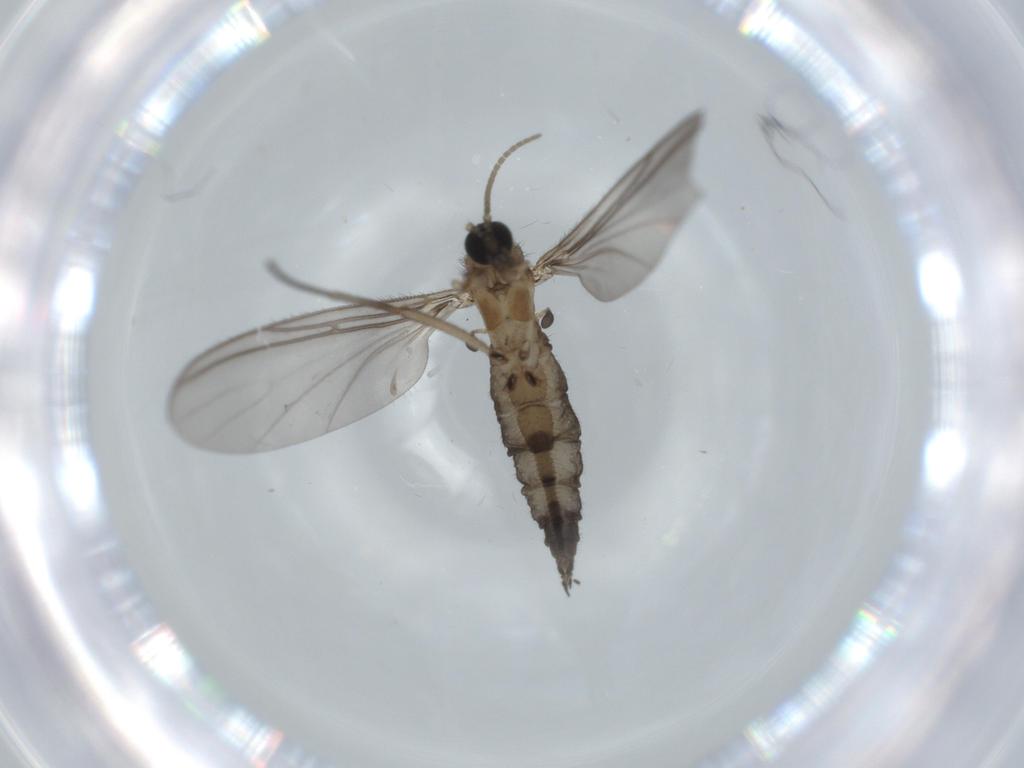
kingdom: Animalia
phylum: Arthropoda
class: Insecta
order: Diptera
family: Sciaridae
